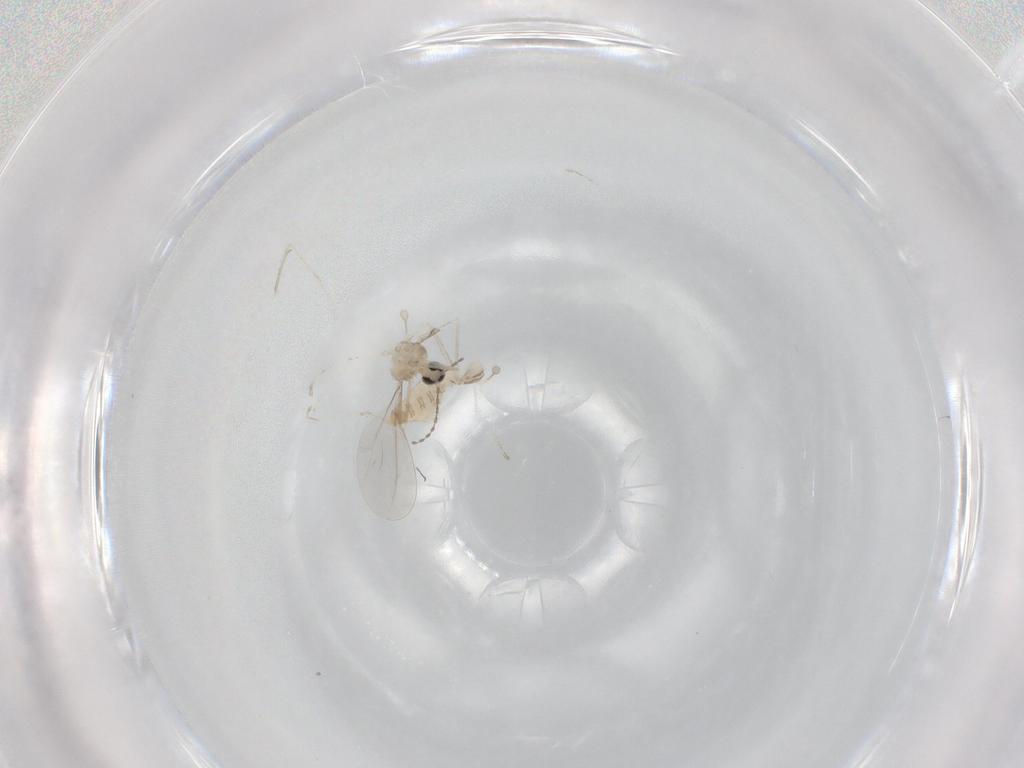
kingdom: Animalia
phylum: Arthropoda
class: Insecta
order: Diptera
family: Cecidomyiidae
